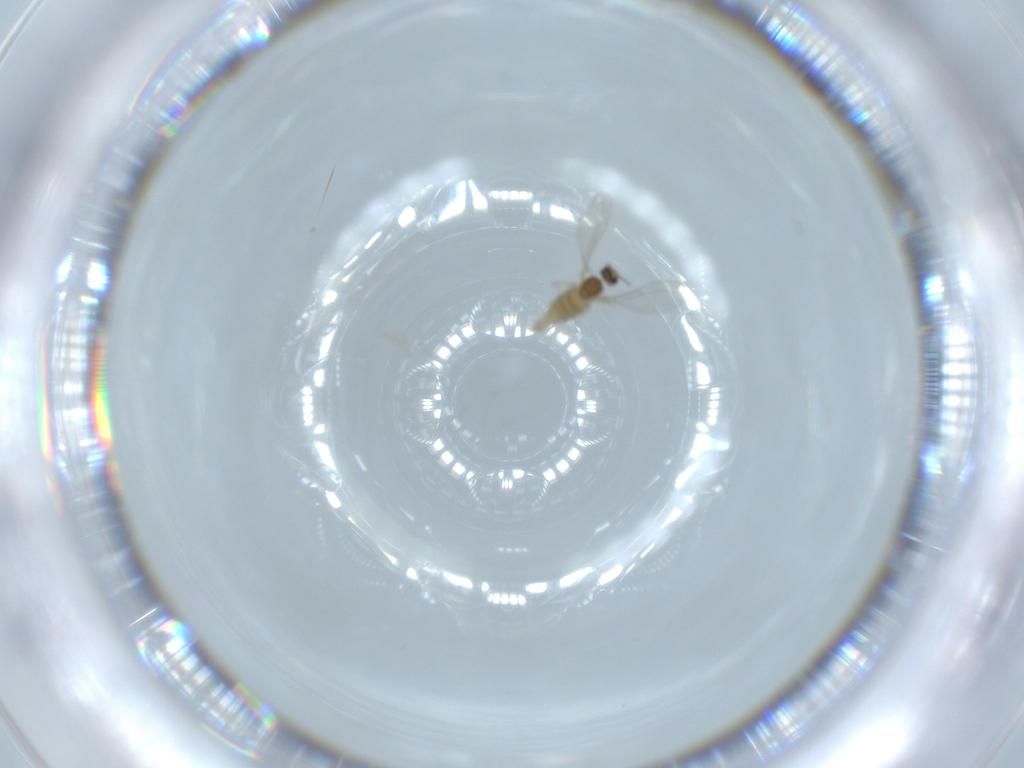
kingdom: Animalia
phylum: Arthropoda
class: Insecta
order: Diptera
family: Cecidomyiidae
